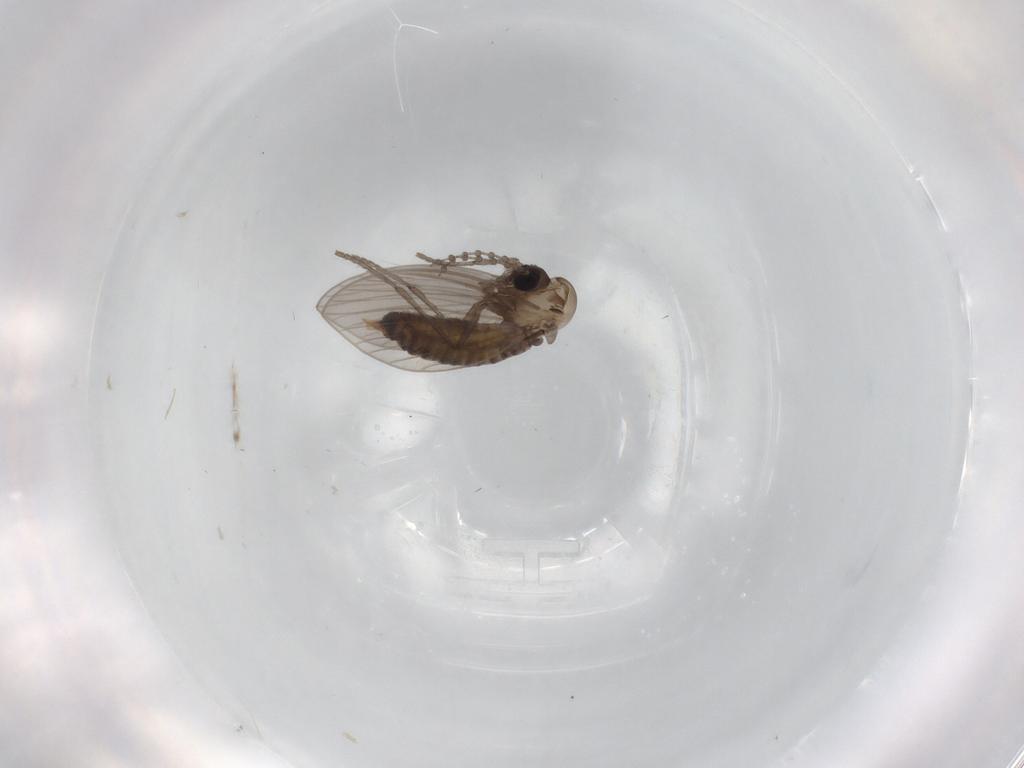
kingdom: Animalia
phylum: Arthropoda
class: Insecta
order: Diptera
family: Psychodidae
